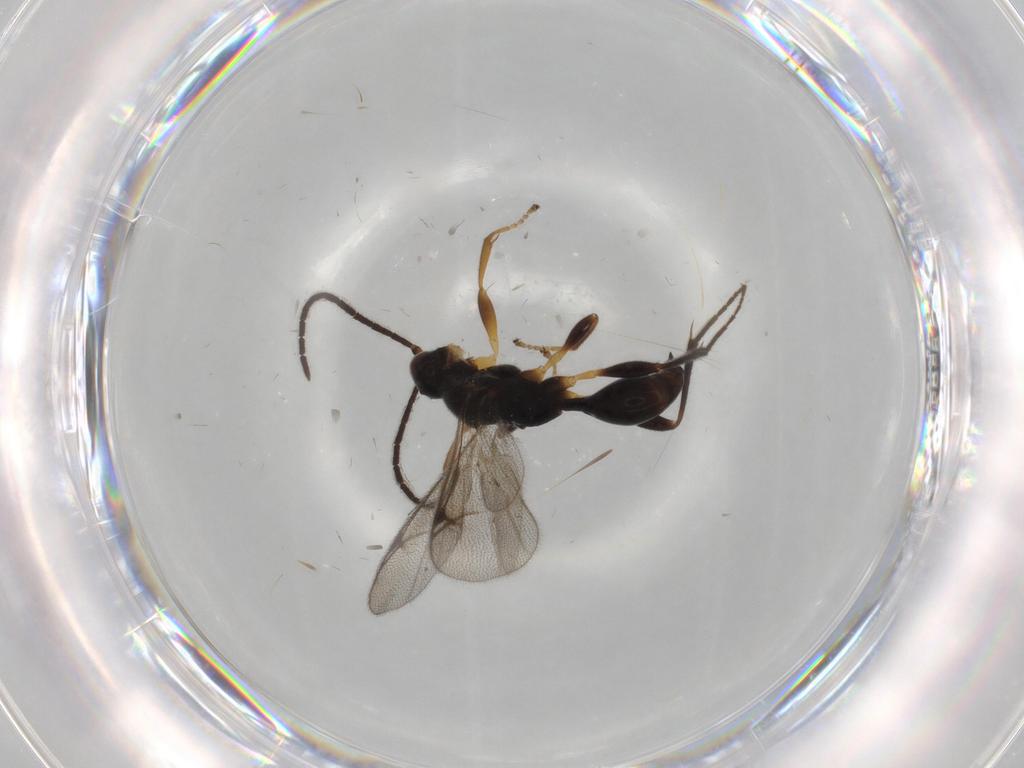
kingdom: Animalia
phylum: Arthropoda
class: Insecta
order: Hymenoptera
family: Proctotrupidae
